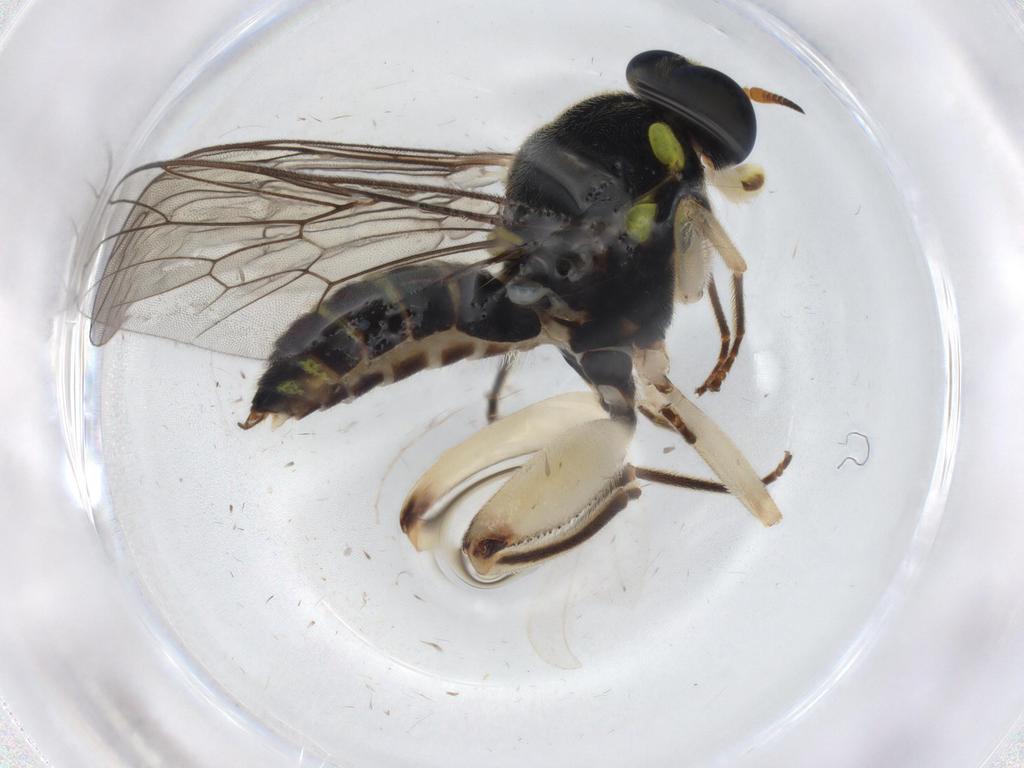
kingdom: Animalia
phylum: Arthropoda
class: Insecta
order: Diptera
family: Xylomyidae
